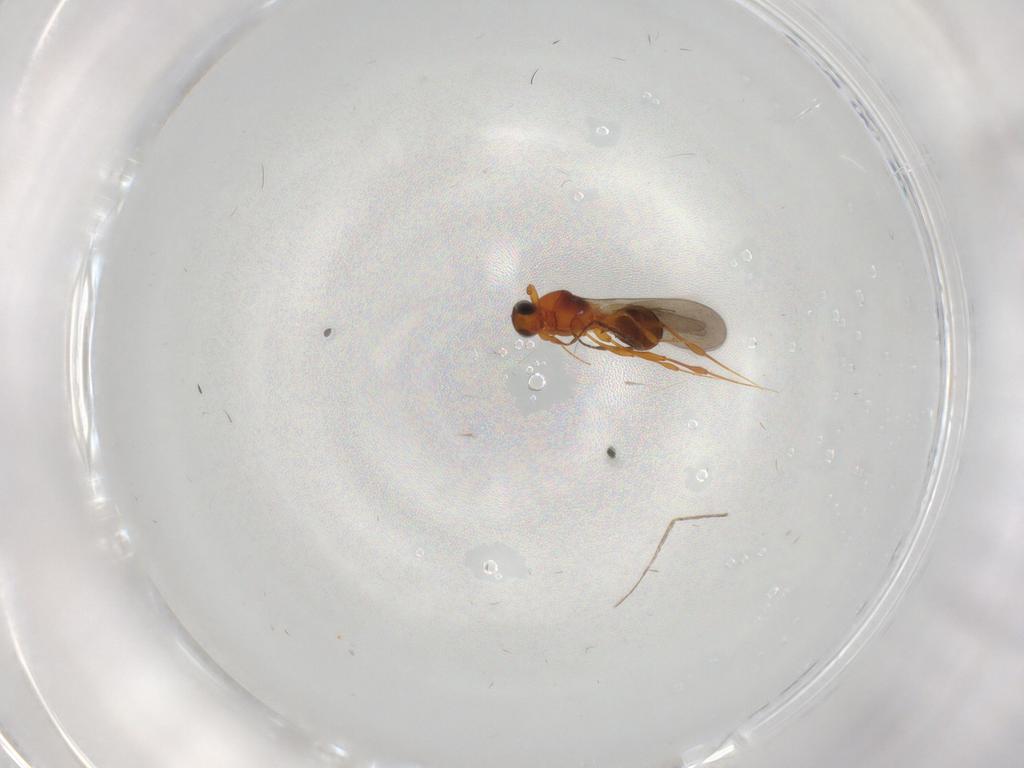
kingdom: Animalia
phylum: Arthropoda
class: Insecta
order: Hymenoptera
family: Platygastridae
